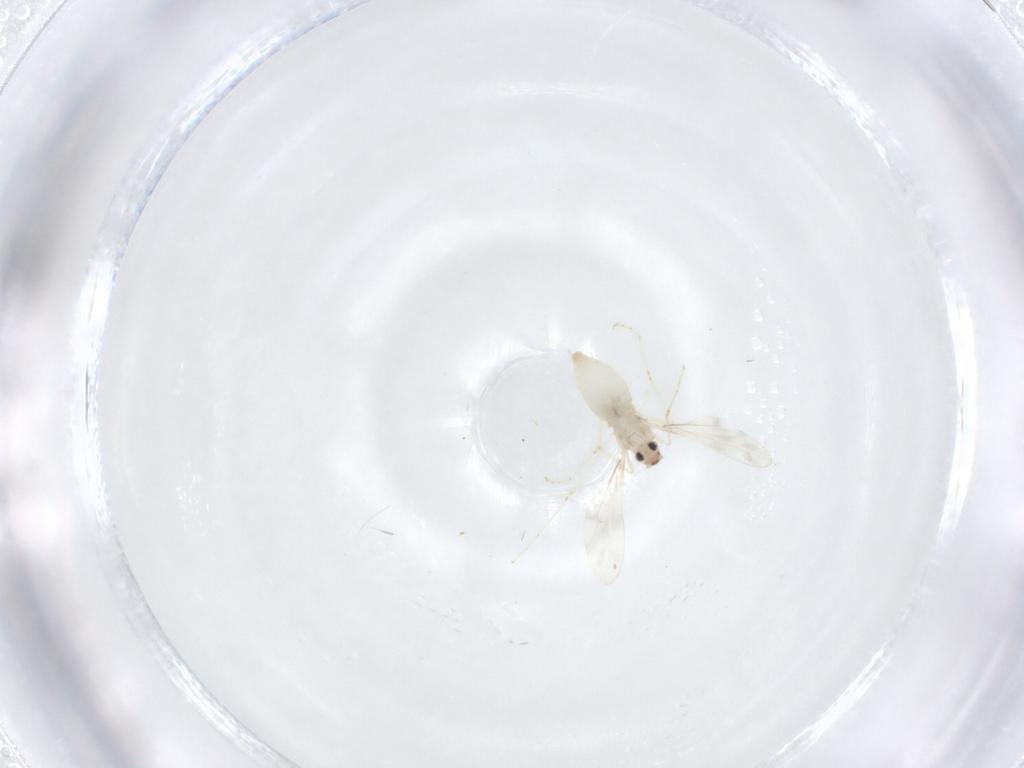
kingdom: Animalia
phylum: Arthropoda
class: Insecta
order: Diptera
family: Cecidomyiidae
